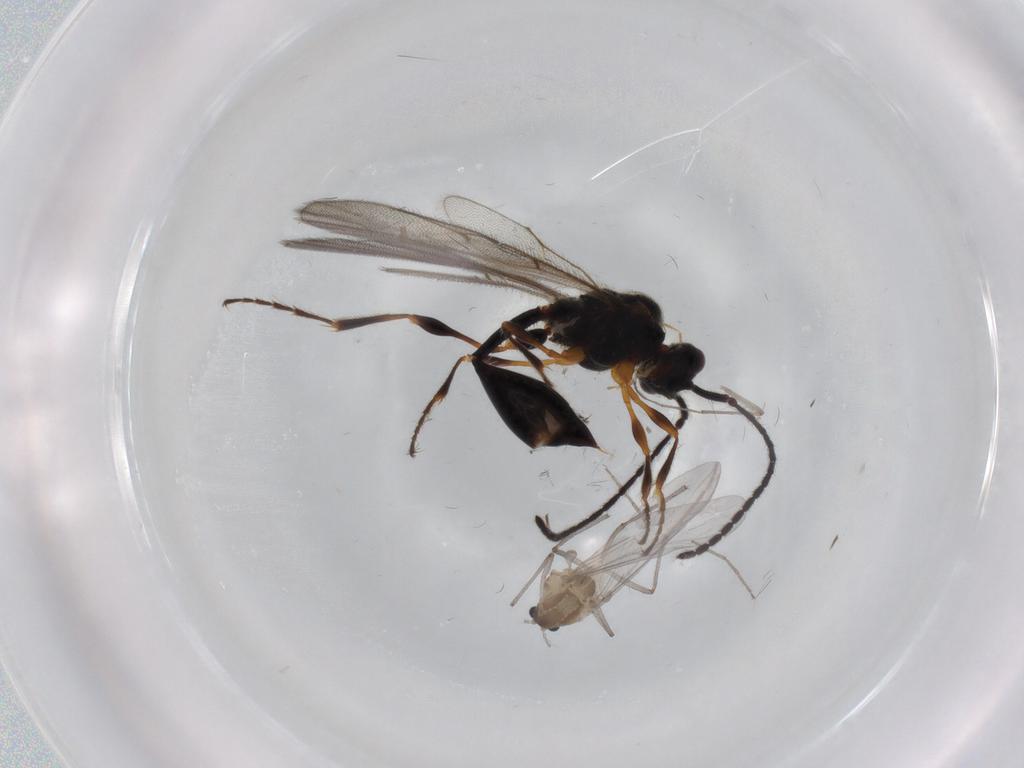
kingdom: Animalia
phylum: Arthropoda
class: Insecta
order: Diptera
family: Chironomidae
